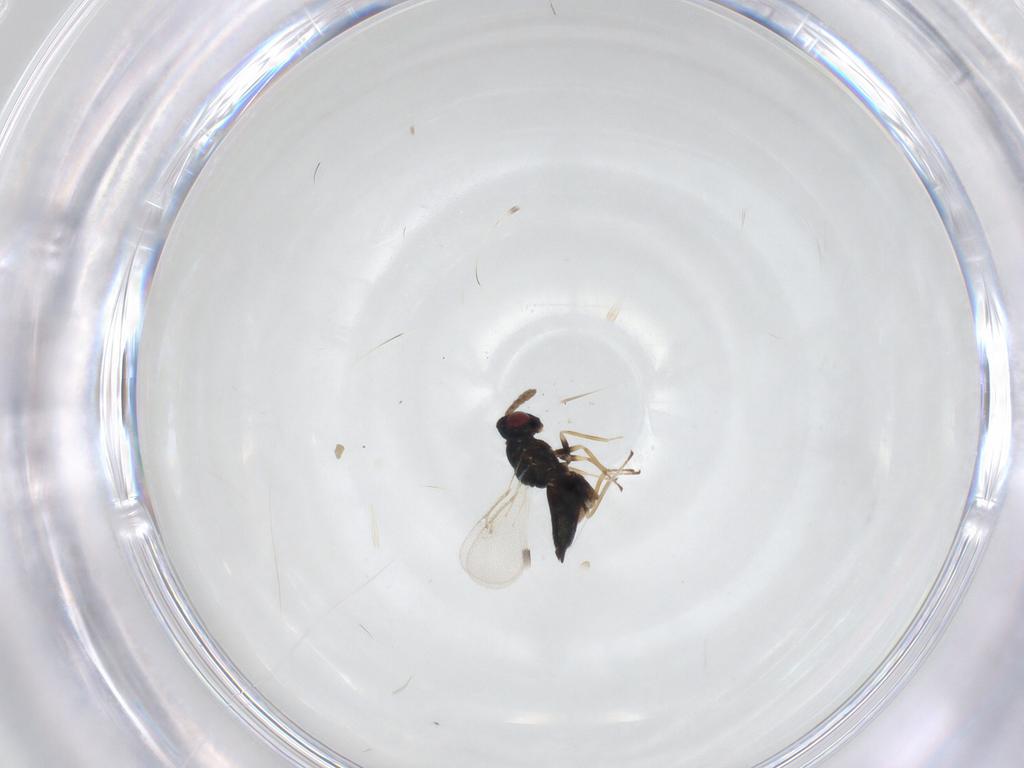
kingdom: Animalia
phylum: Arthropoda
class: Insecta
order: Hymenoptera
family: Eulophidae
